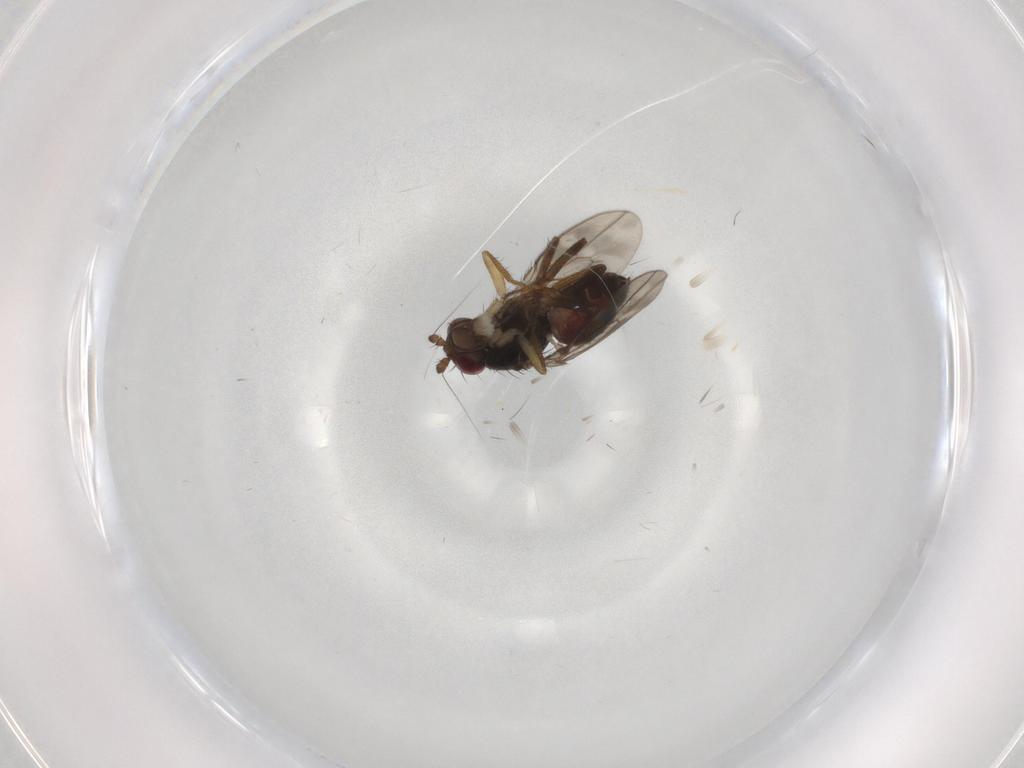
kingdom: Animalia
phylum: Arthropoda
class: Insecta
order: Diptera
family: Sphaeroceridae
